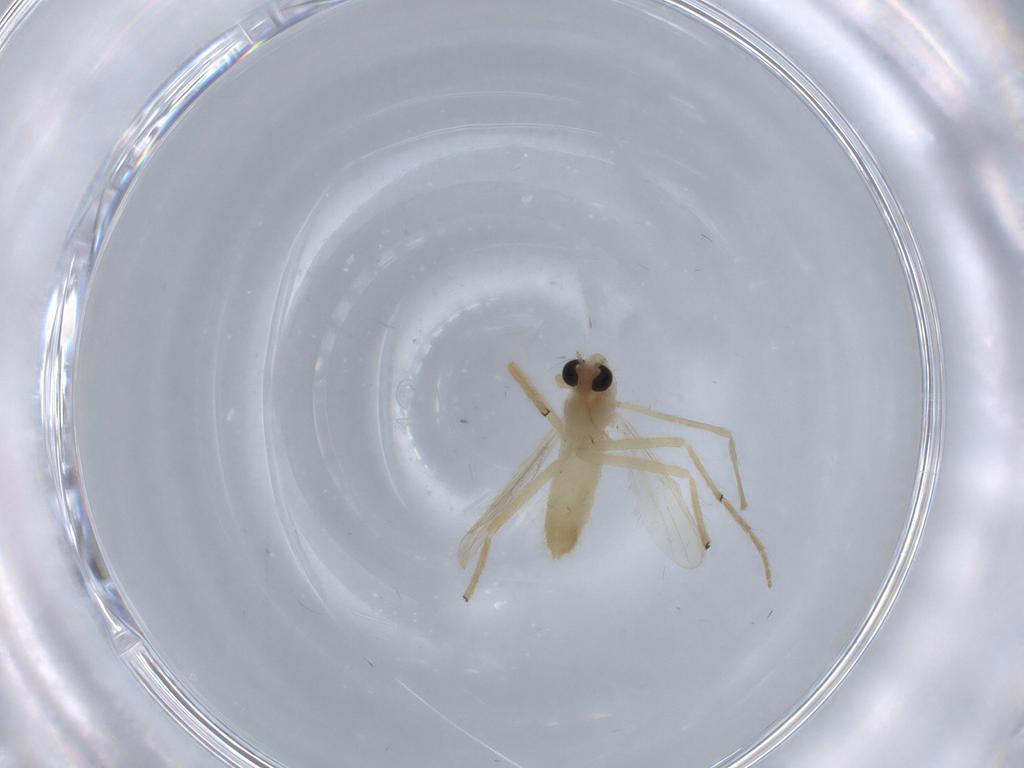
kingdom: Animalia
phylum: Arthropoda
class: Insecta
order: Diptera
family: Chironomidae
